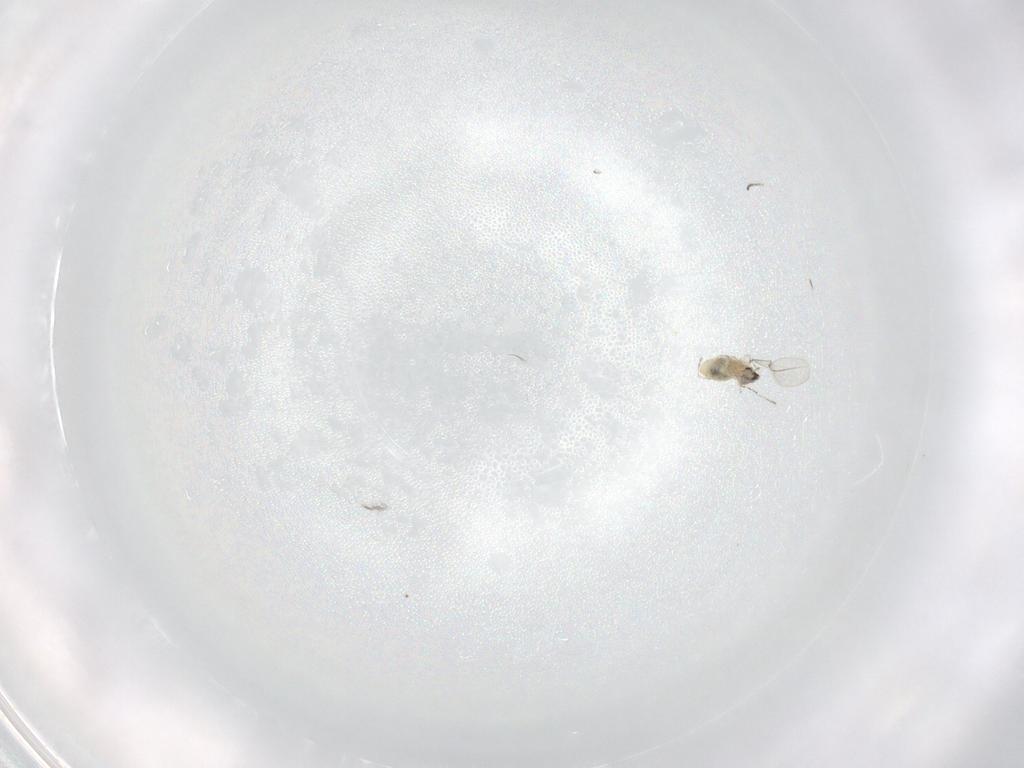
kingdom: Animalia
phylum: Arthropoda
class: Insecta
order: Diptera
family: Cecidomyiidae
